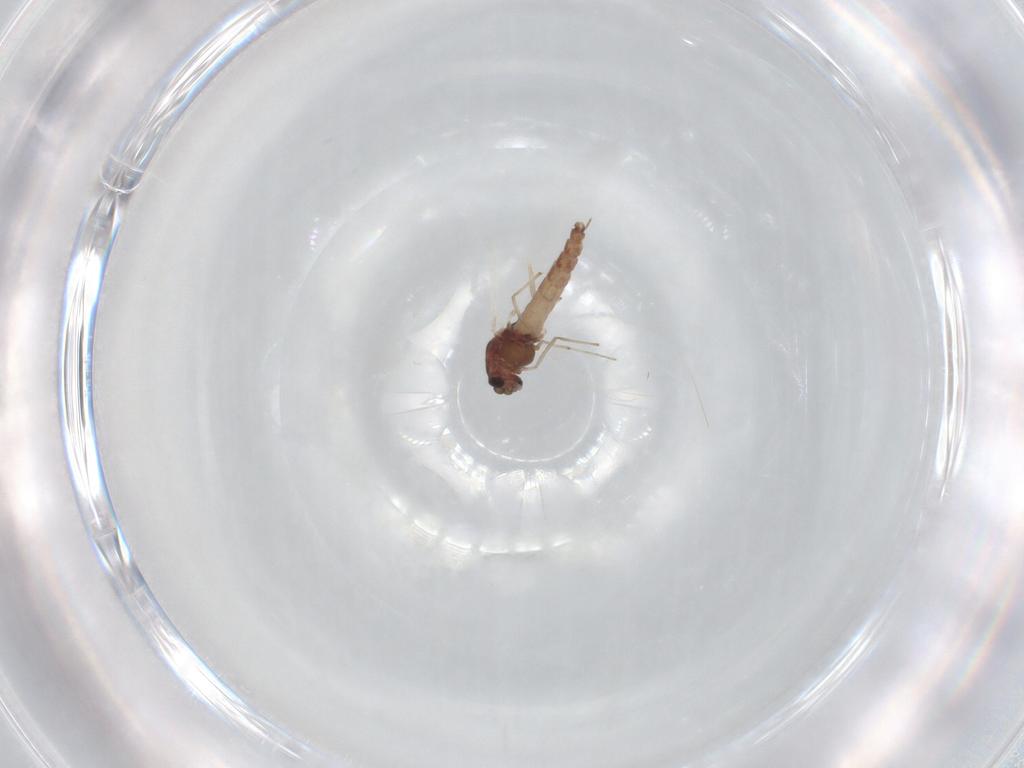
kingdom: Animalia
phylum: Arthropoda
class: Insecta
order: Diptera
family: Chironomidae
